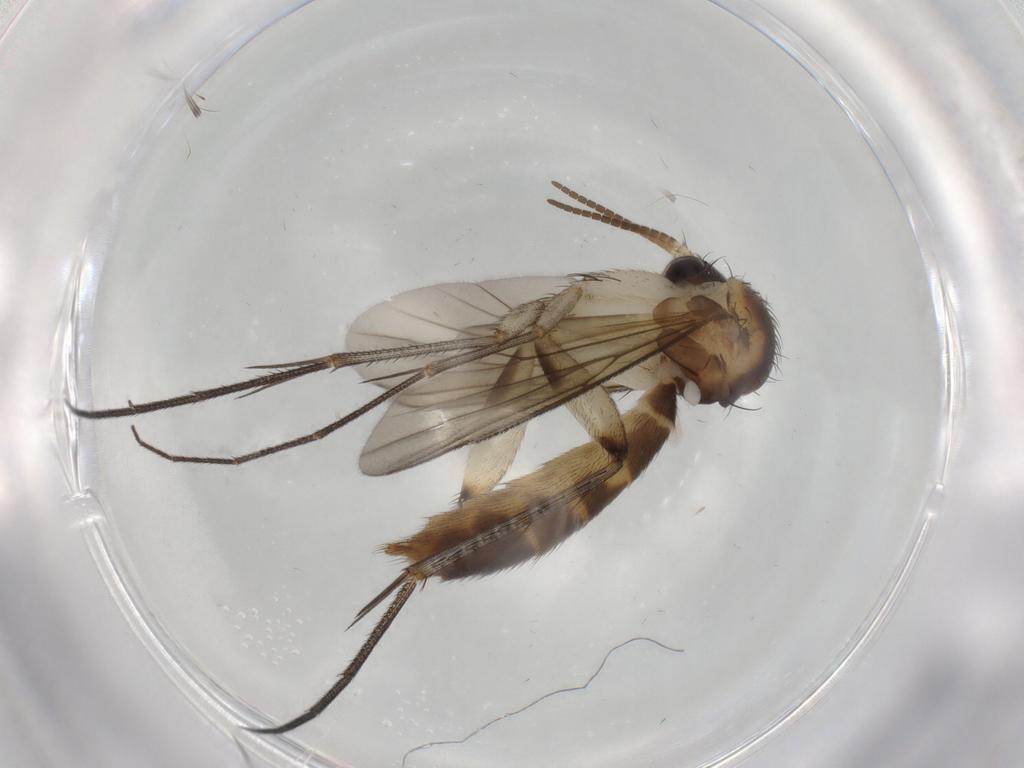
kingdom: Animalia
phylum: Arthropoda
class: Insecta
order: Diptera
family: Mycetophilidae
